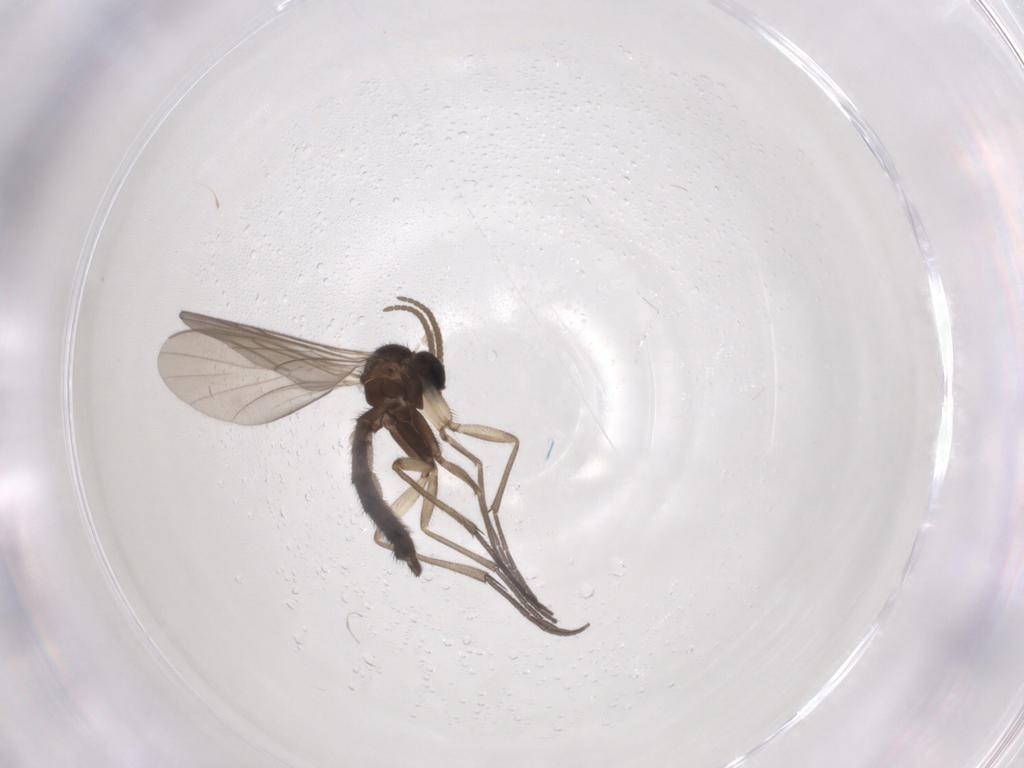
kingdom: Animalia
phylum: Arthropoda
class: Insecta
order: Diptera
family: Keroplatidae
